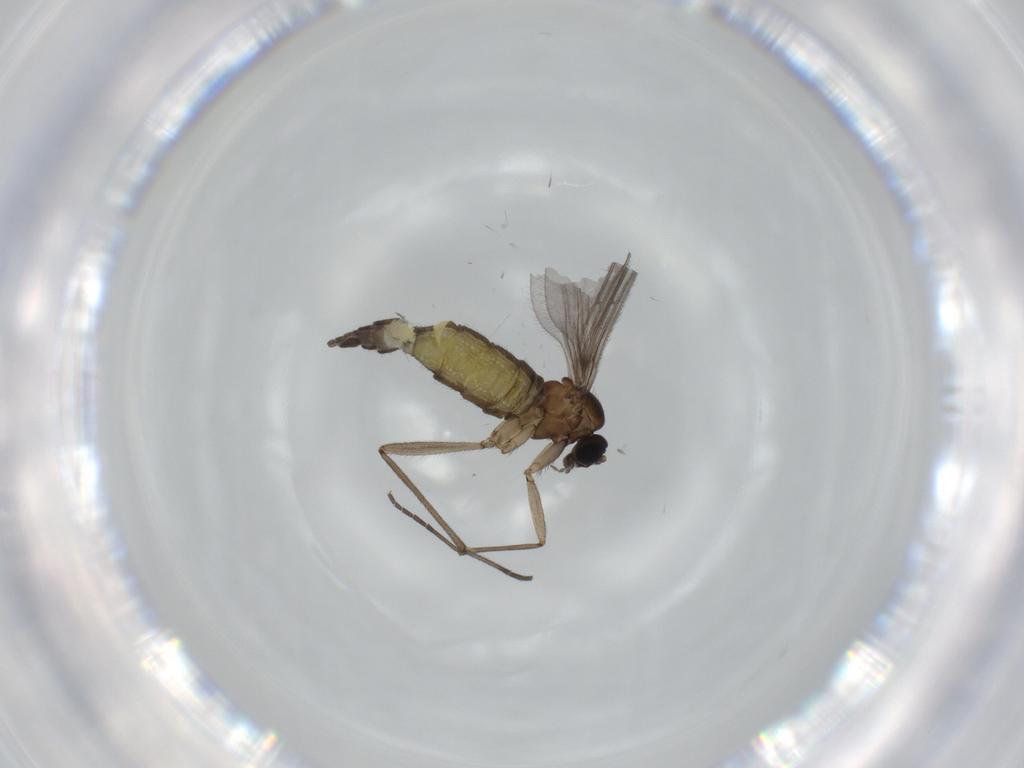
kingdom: Animalia
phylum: Arthropoda
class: Insecta
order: Diptera
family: Milichiidae
